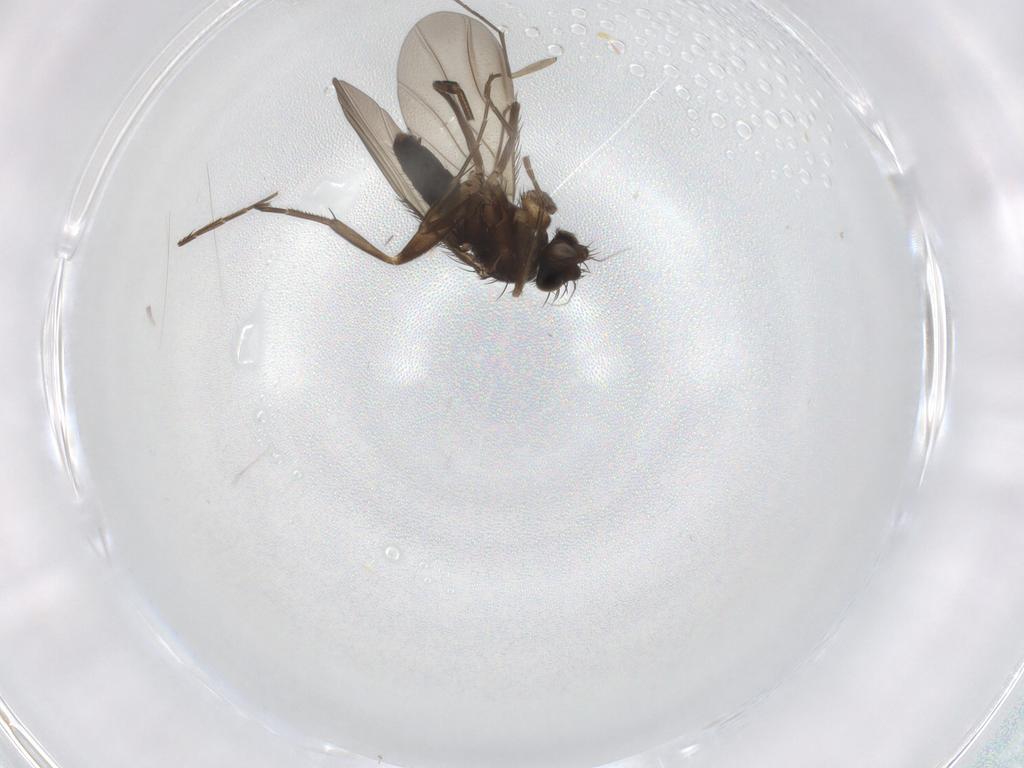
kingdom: Animalia
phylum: Arthropoda
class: Insecta
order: Diptera
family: Phoridae
